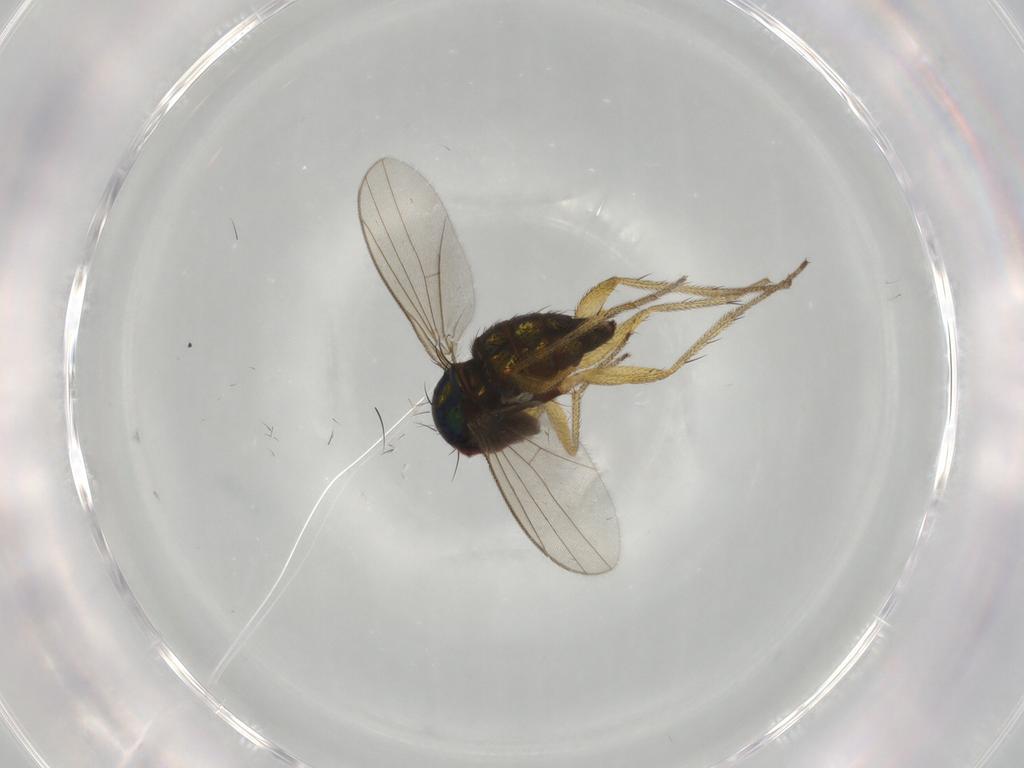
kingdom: Animalia
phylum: Arthropoda
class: Insecta
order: Diptera
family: Dolichopodidae
